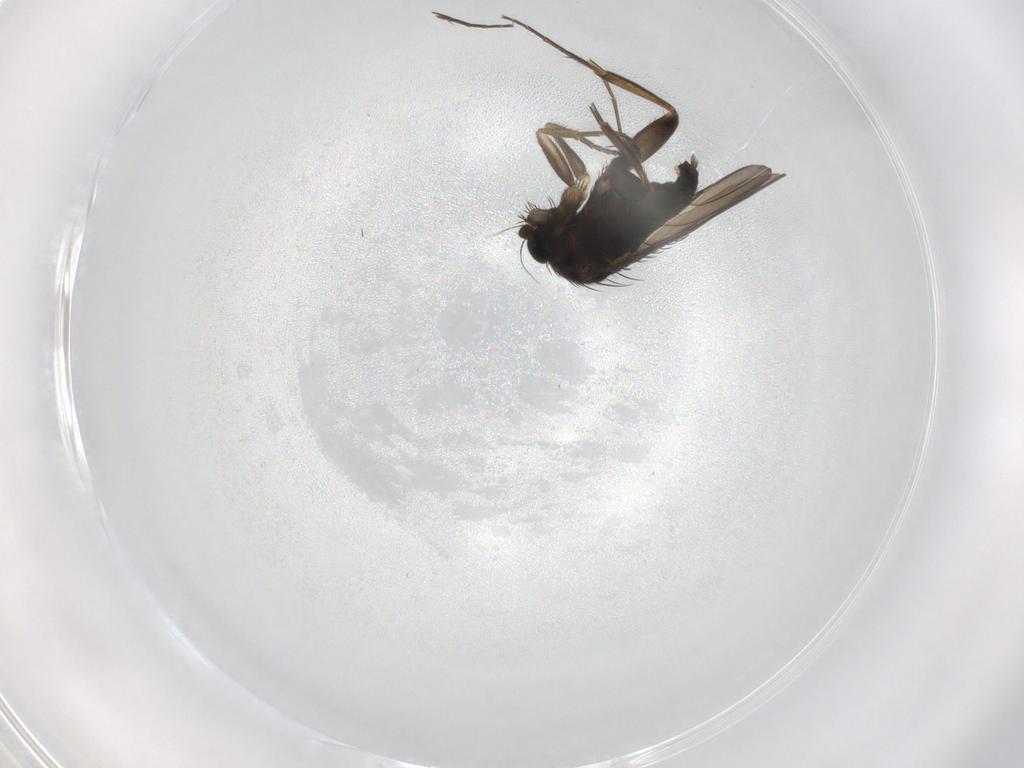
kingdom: Animalia
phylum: Arthropoda
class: Insecta
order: Diptera
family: Phoridae
